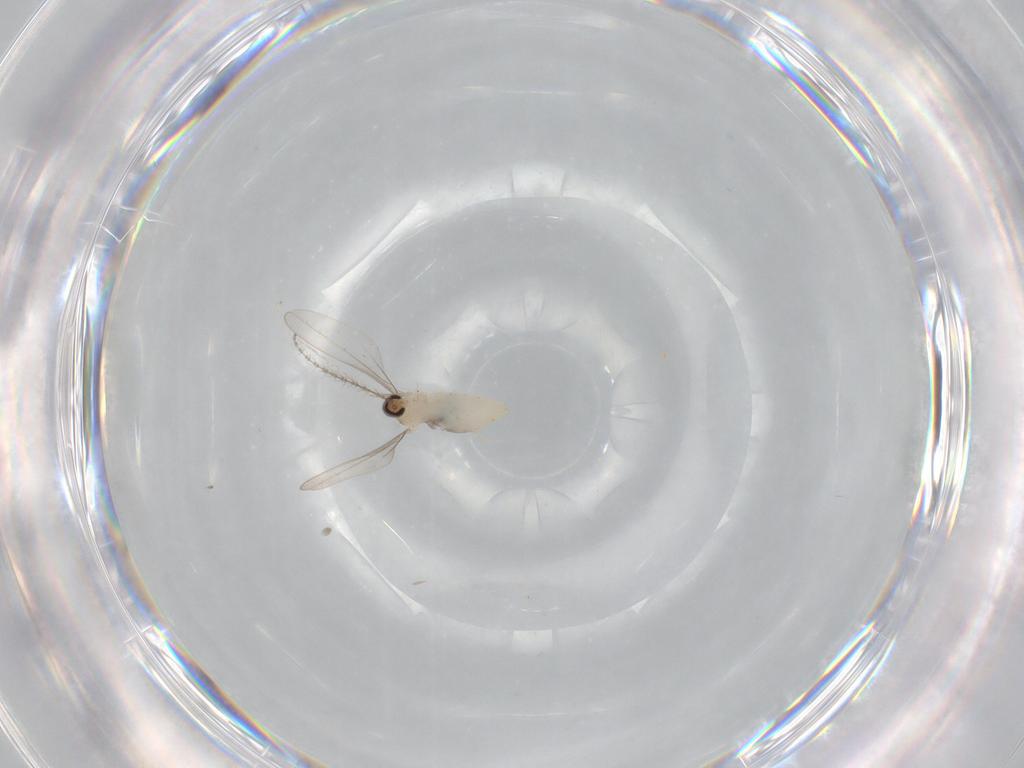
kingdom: Animalia
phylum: Arthropoda
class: Insecta
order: Diptera
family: Cecidomyiidae
